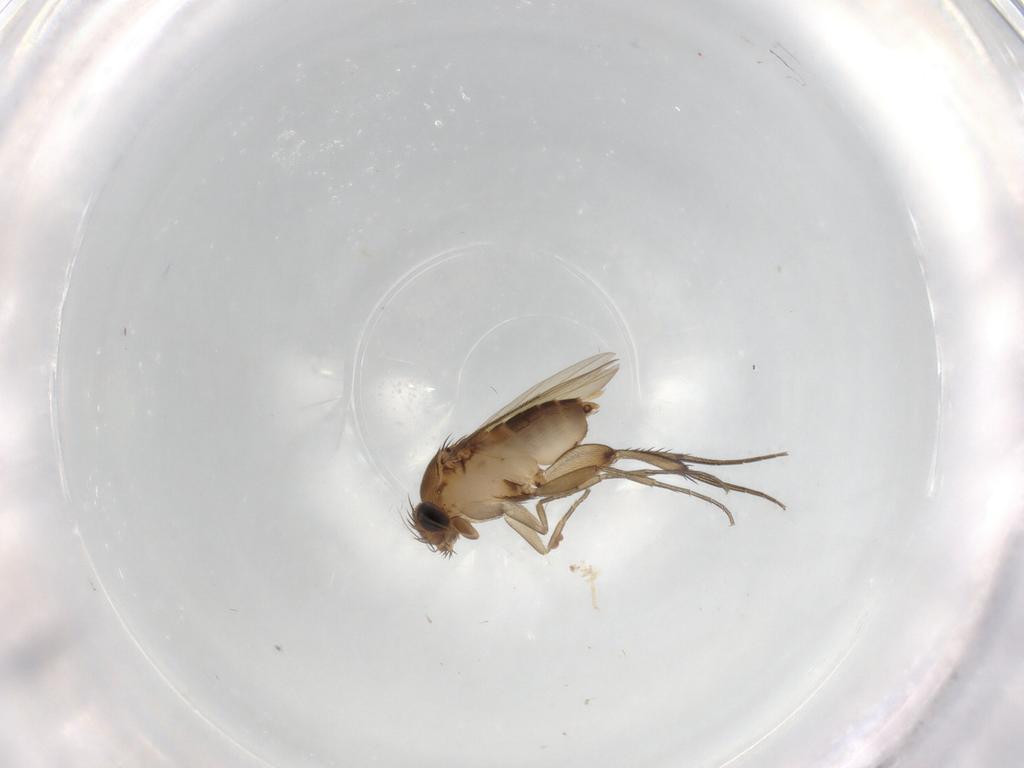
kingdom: Animalia
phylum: Arthropoda
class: Insecta
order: Diptera
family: Phoridae
